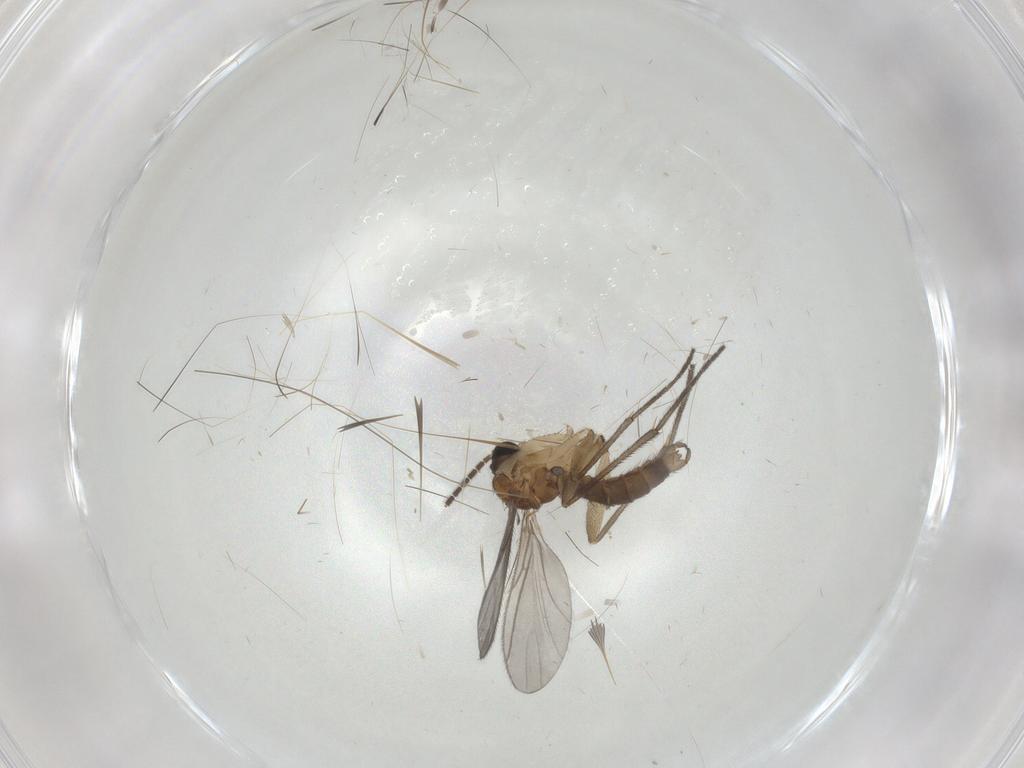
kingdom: Animalia
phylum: Arthropoda
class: Insecta
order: Diptera
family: Sciaridae
